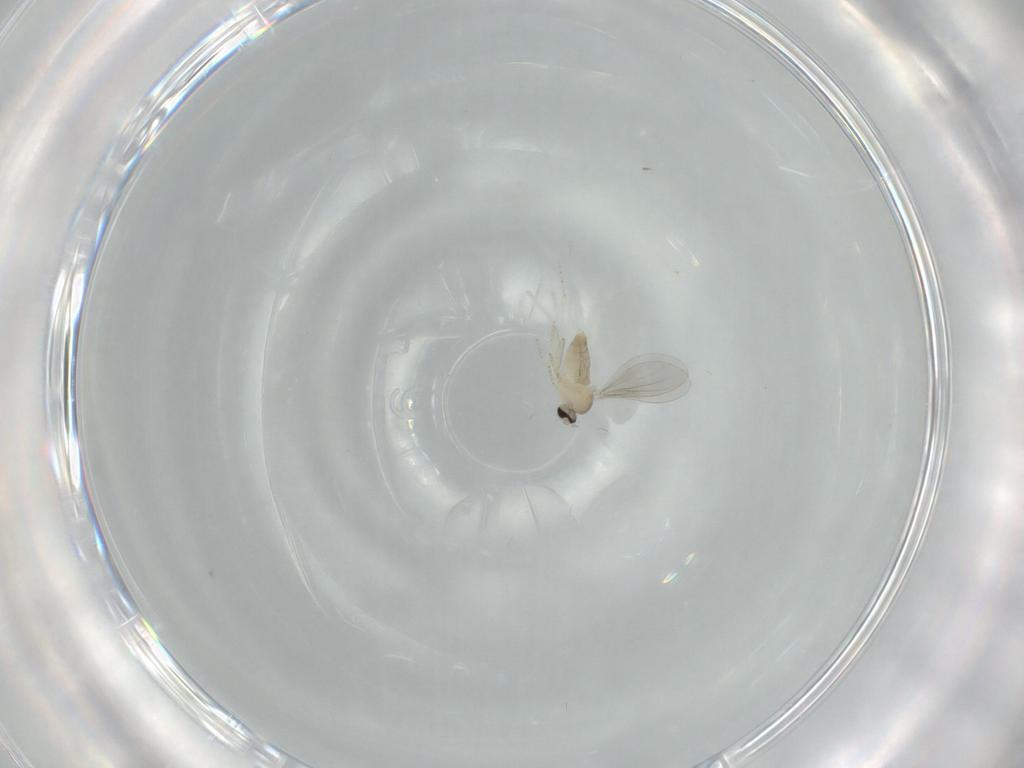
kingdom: Animalia
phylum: Arthropoda
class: Insecta
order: Diptera
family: Cecidomyiidae
